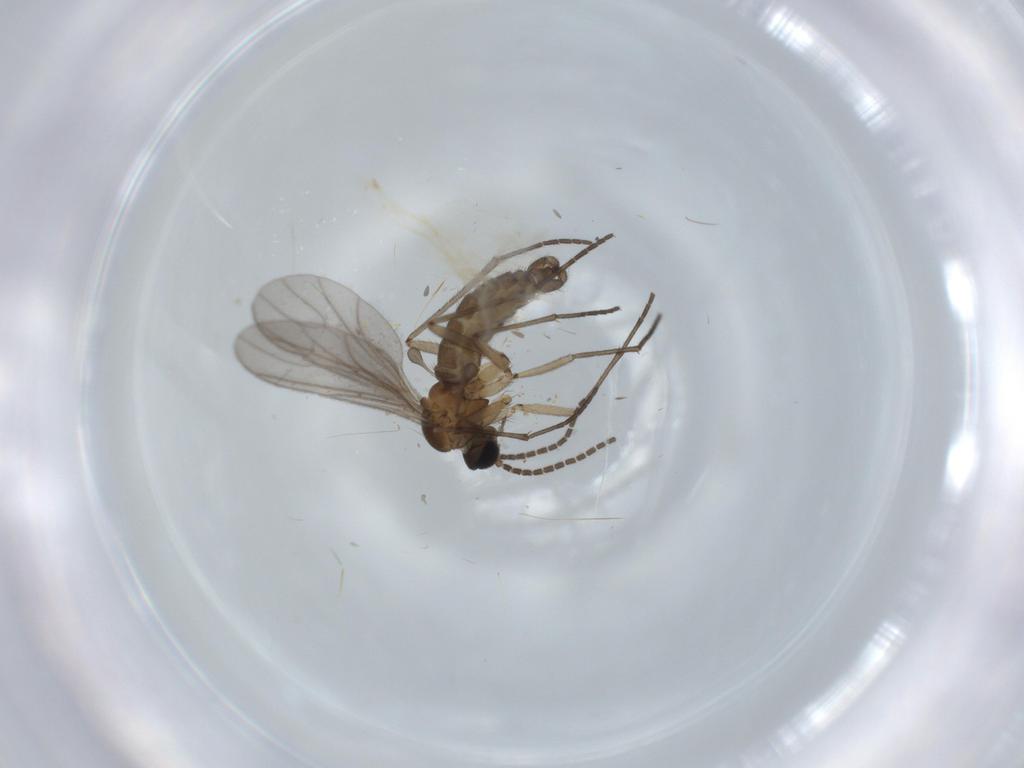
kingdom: Animalia
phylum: Arthropoda
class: Insecta
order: Diptera
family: Sciaridae
